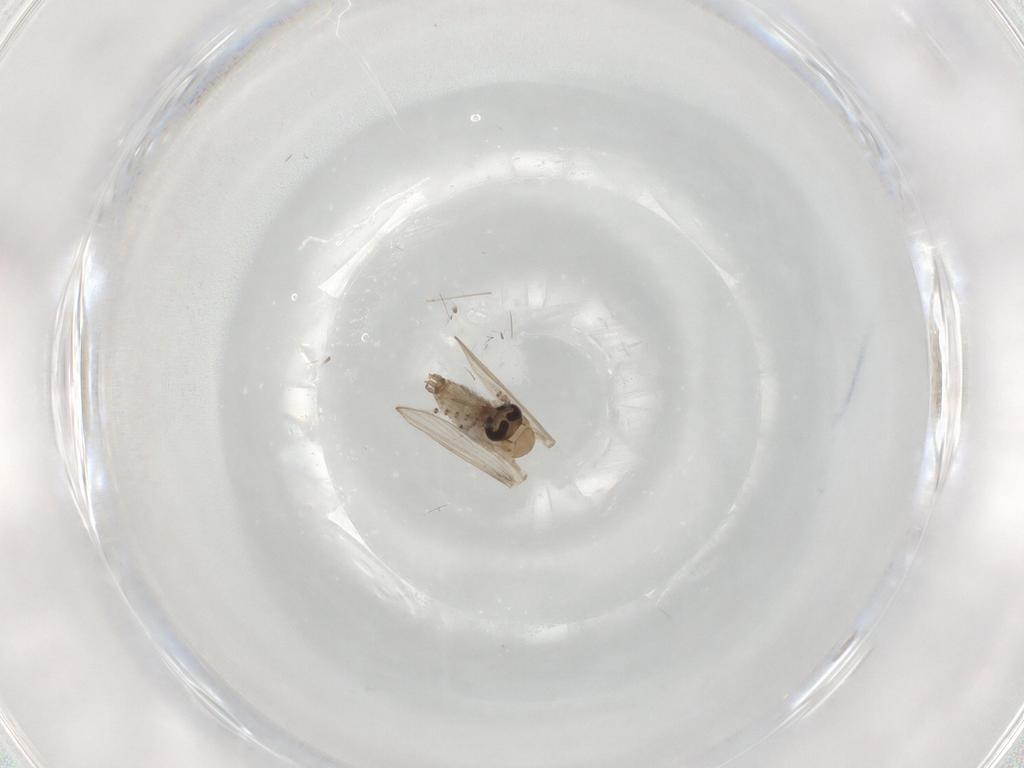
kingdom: Animalia
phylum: Arthropoda
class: Insecta
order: Diptera
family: Psychodidae
